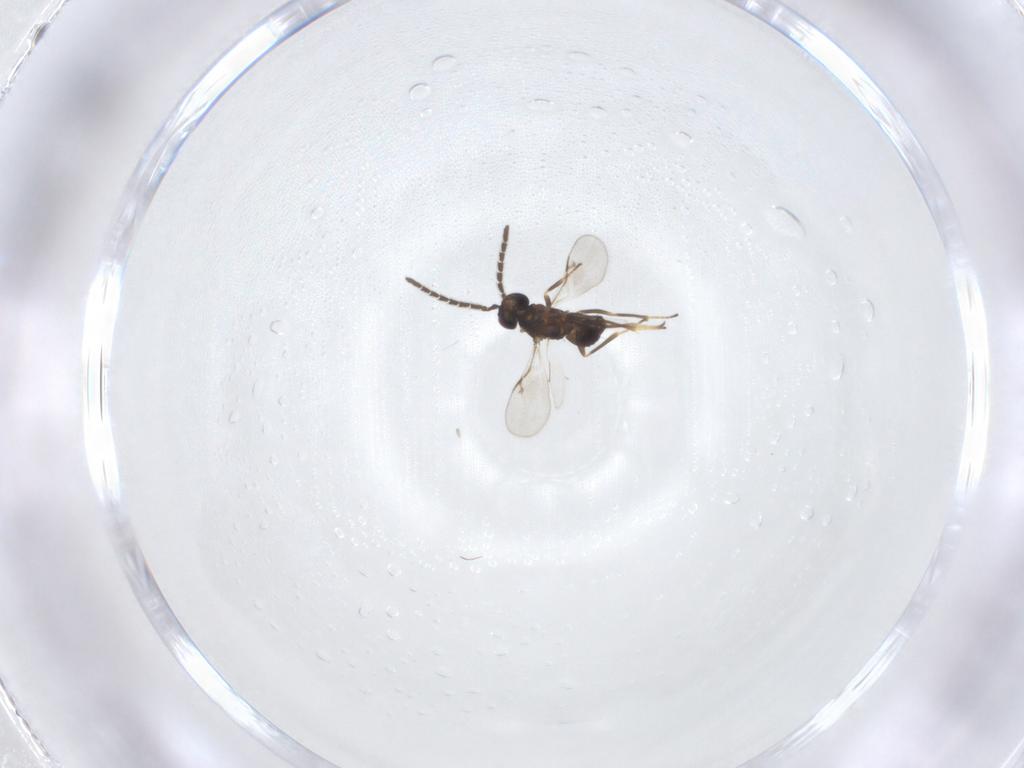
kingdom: Animalia
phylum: Arthropoda
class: Insecta
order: Hymenoptera
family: Encyrtidae
